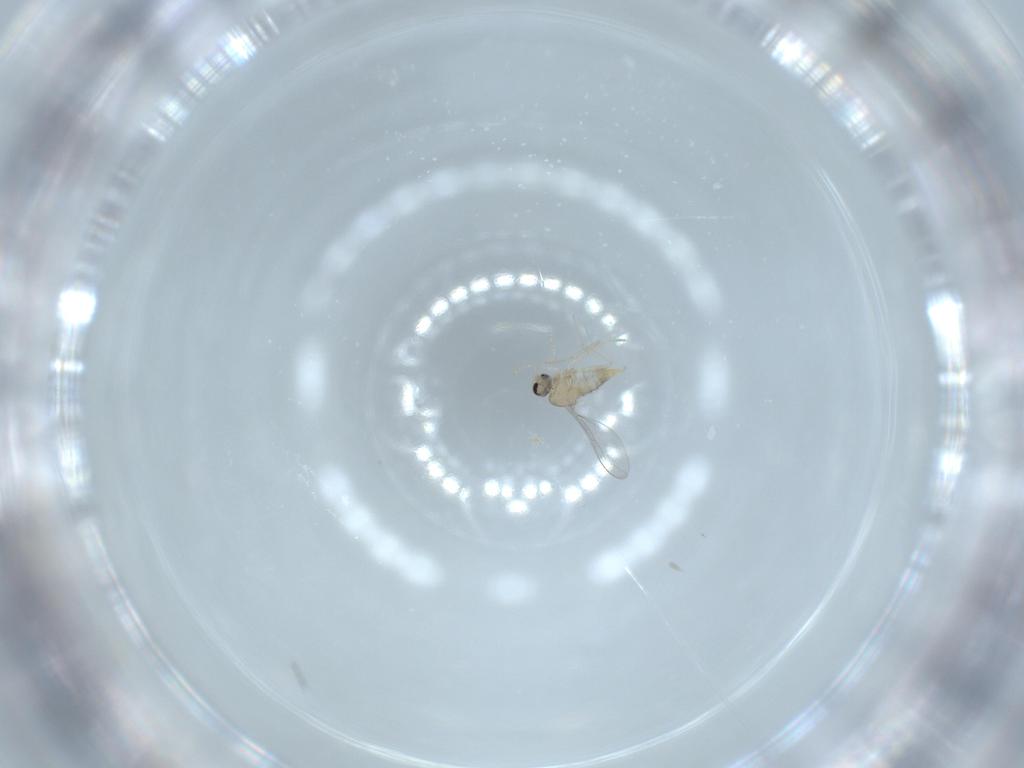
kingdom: Animalia
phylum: Arthropoda
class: Insecta
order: Diptera
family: Cecidomyiidae
